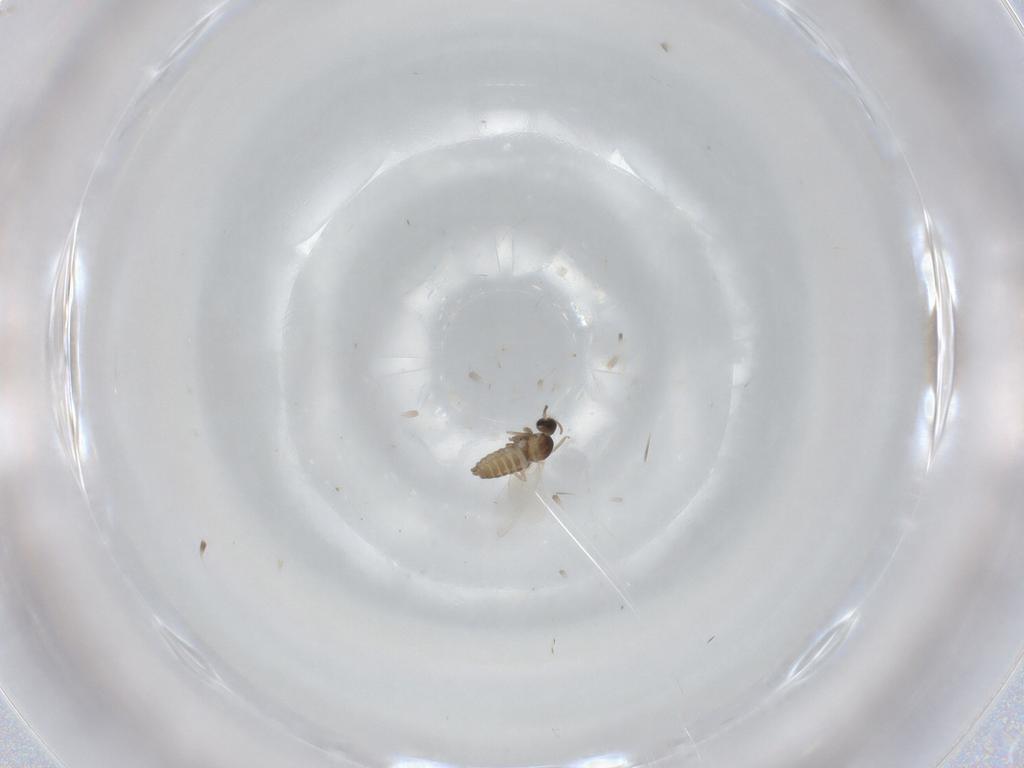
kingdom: Animalia
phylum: Arthropoda
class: Insecta
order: Diptera
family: Cecidomyiidae
